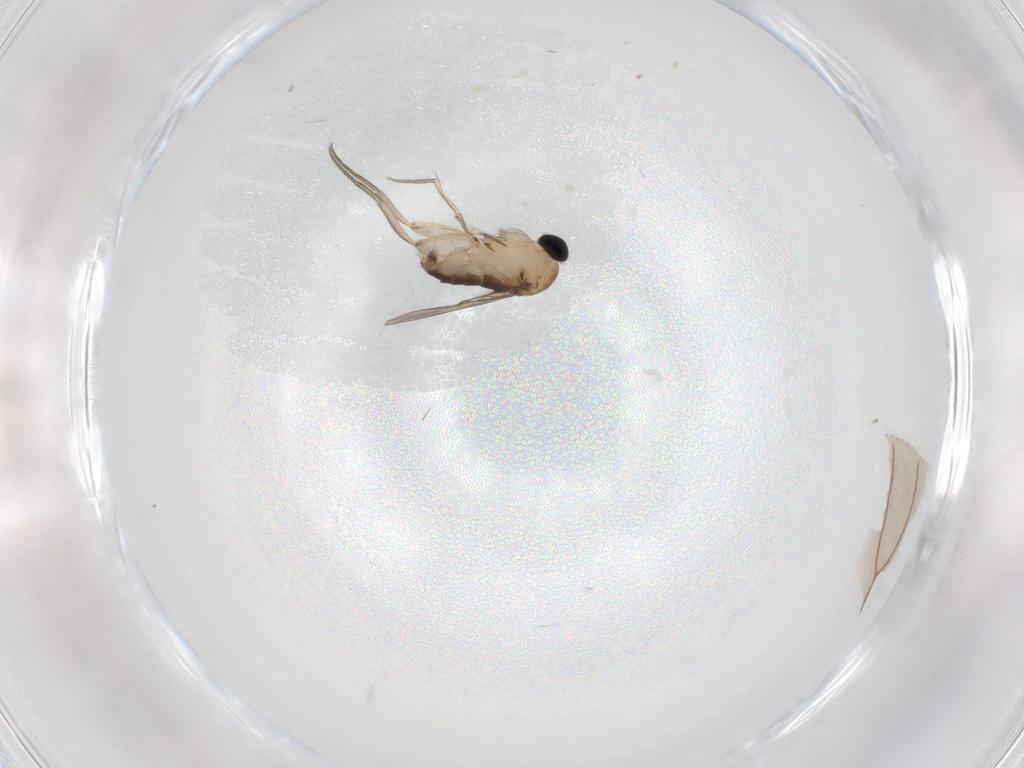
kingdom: Animalia
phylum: Arthropoda
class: Insecta
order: Diptera
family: Phoridae
